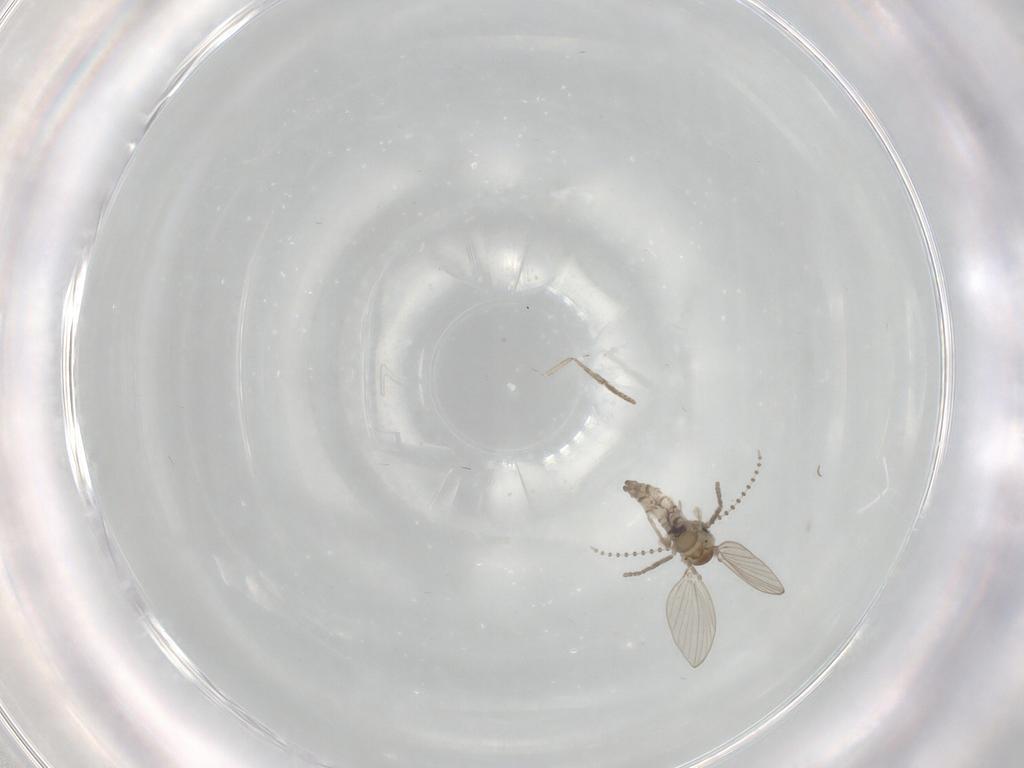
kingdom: Animalia
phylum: Arthropoda
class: Insecta
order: Diptera
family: Psychodidae
